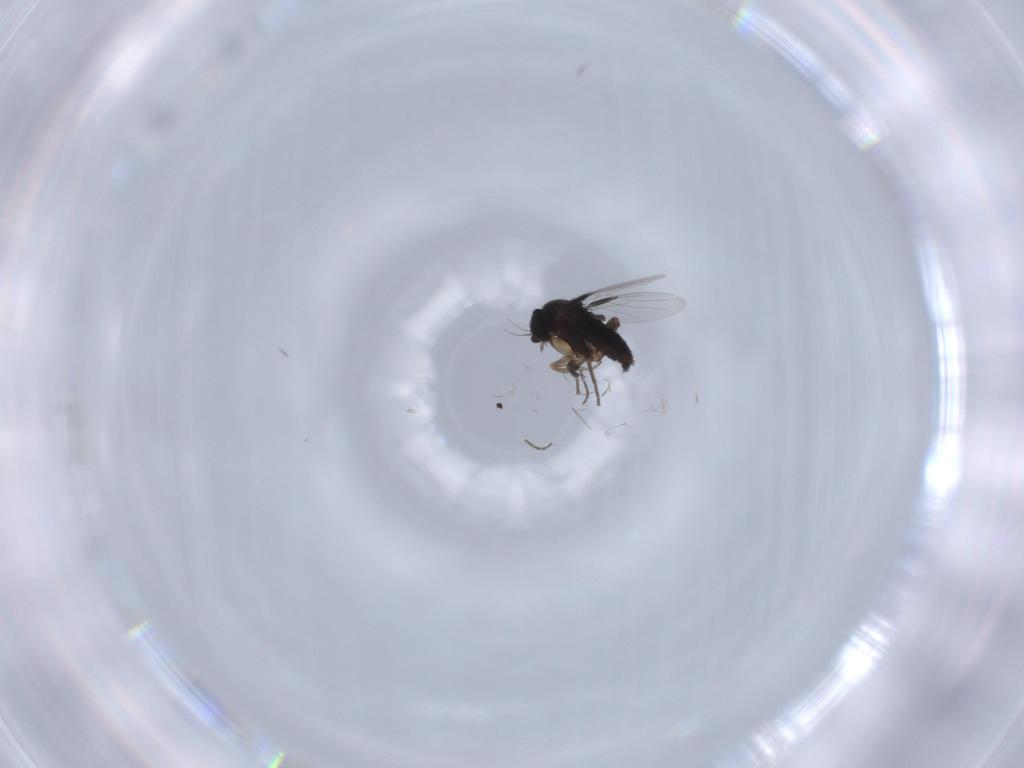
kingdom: Animalia
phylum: Arthropoda
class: Insecta
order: Diptera
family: Phoridae
